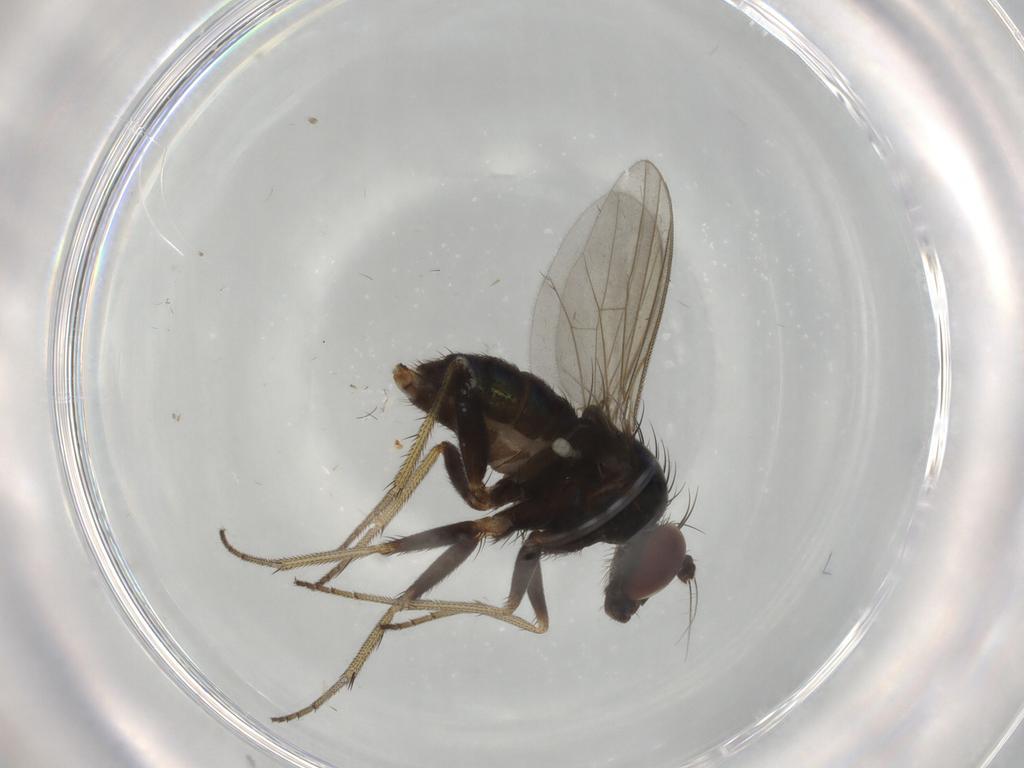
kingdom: Animalia
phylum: Arthropoda
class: Insecta
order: Diptera
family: Dolichopodidae
